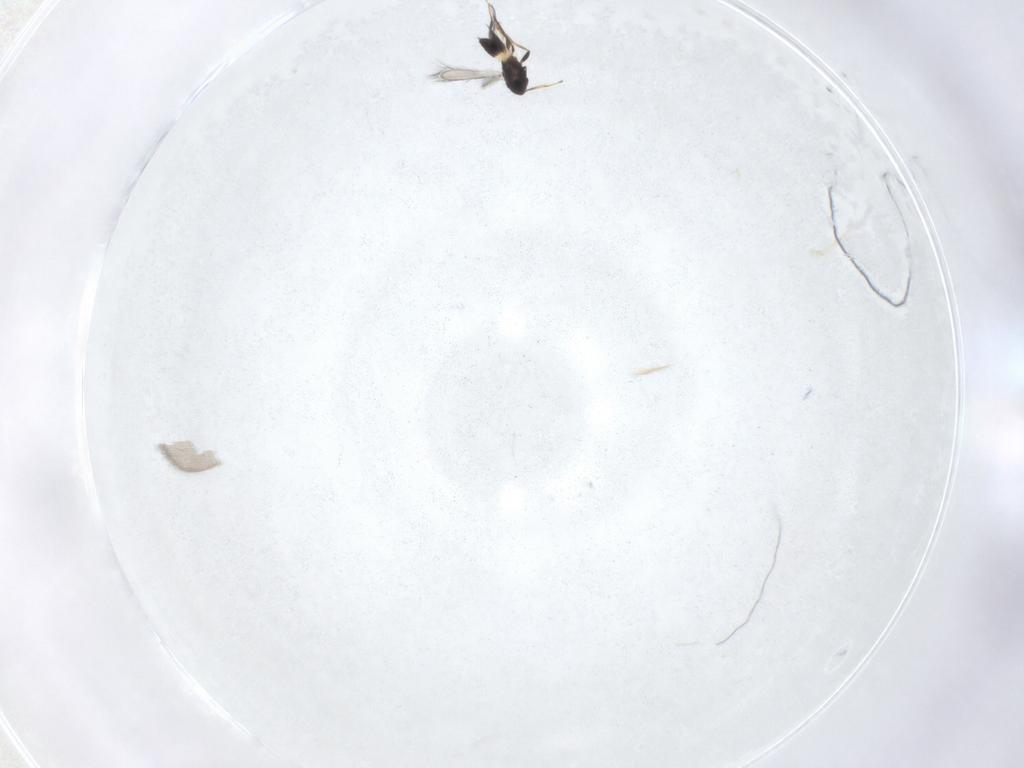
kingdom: Animalia
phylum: Arthropoda
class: Insecta
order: Hymenoptera
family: Mymaridae
